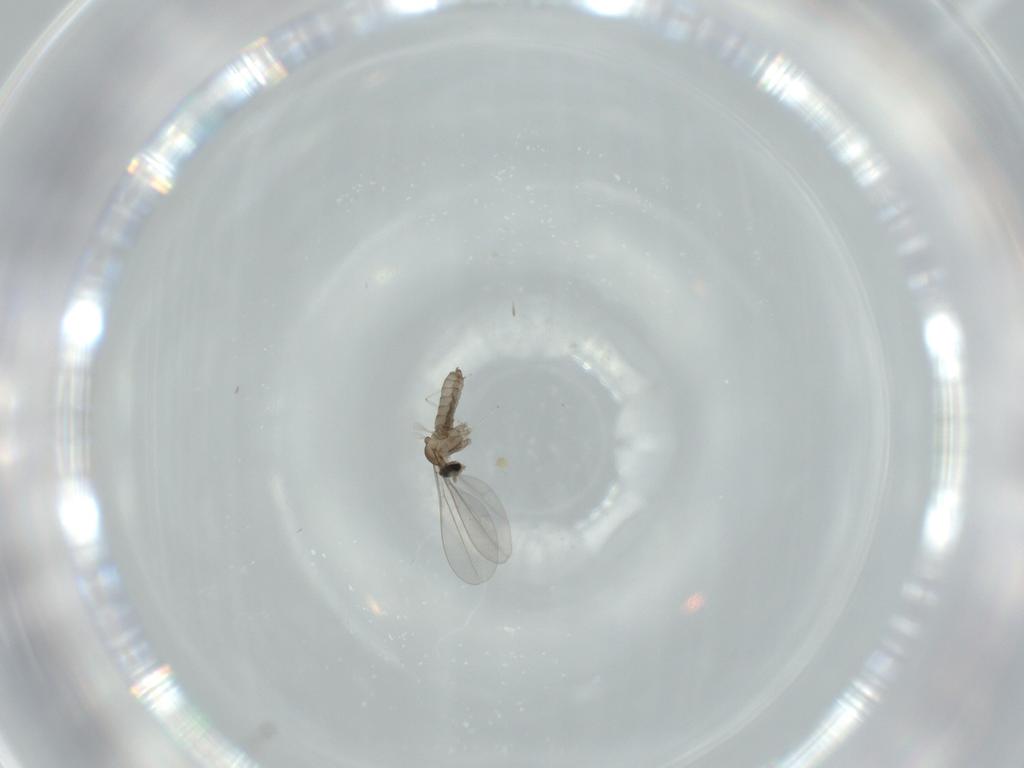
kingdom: Animalia
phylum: Arthropoda
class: Insecta
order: Diptera
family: Cecidomyiidae
